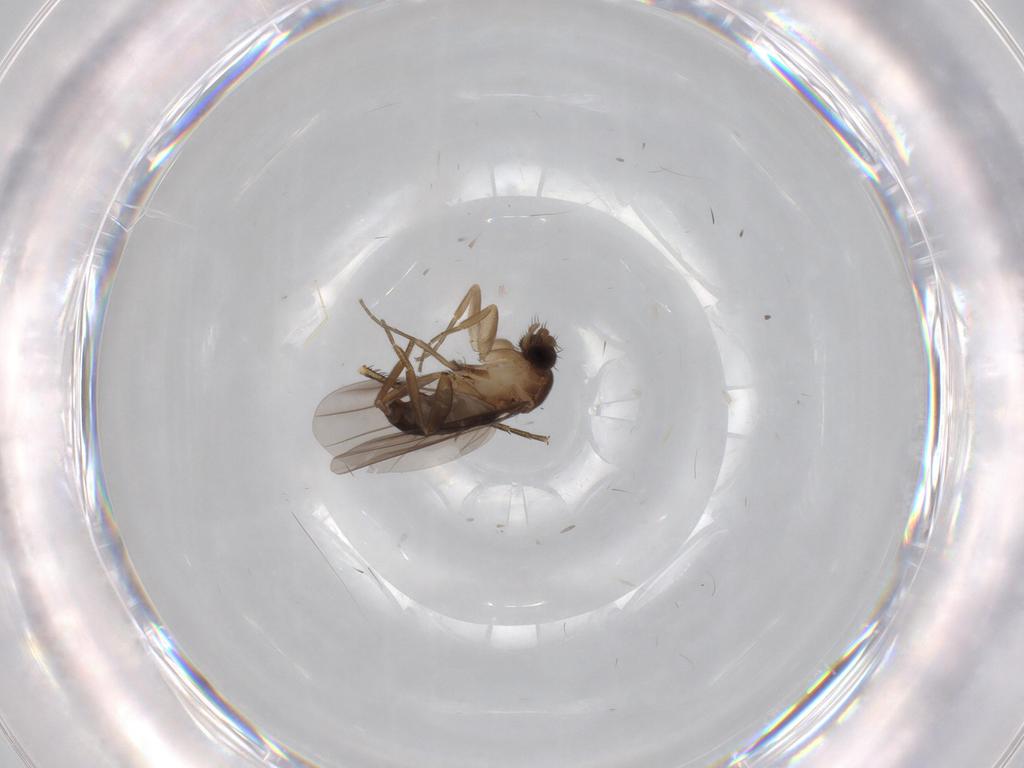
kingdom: Animalia
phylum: Arthropoda
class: Insecta
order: Diptera
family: Phoridae
